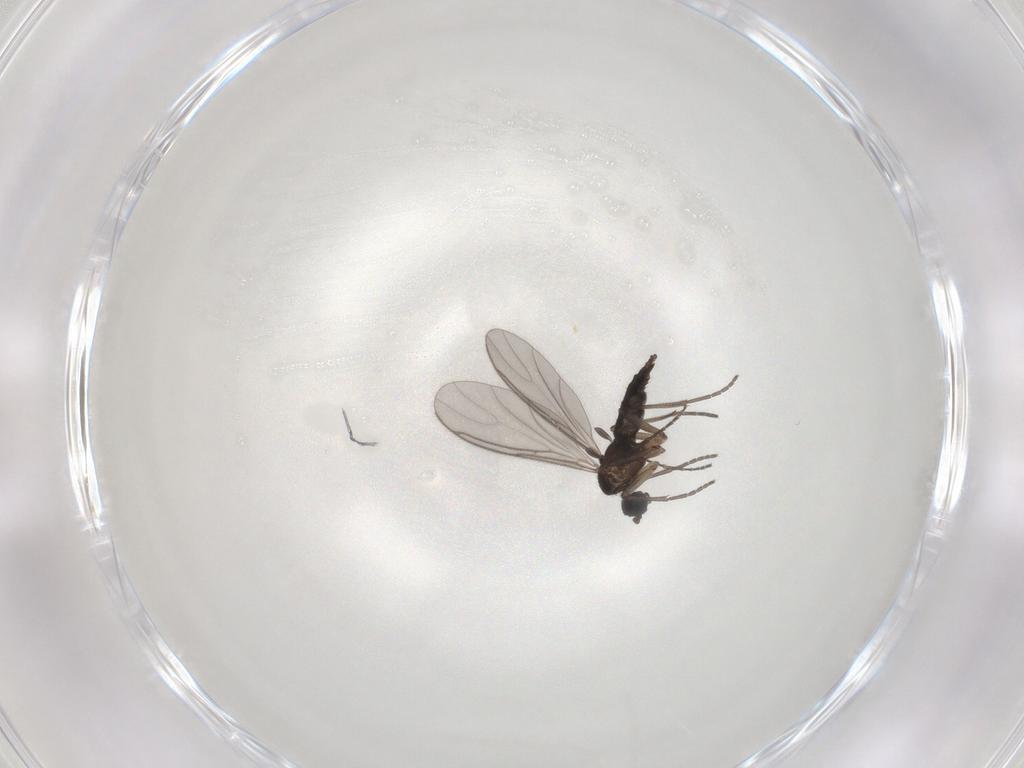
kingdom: Animalia
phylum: Arthropoda
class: Insecta
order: Diptera
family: Sciaridae
